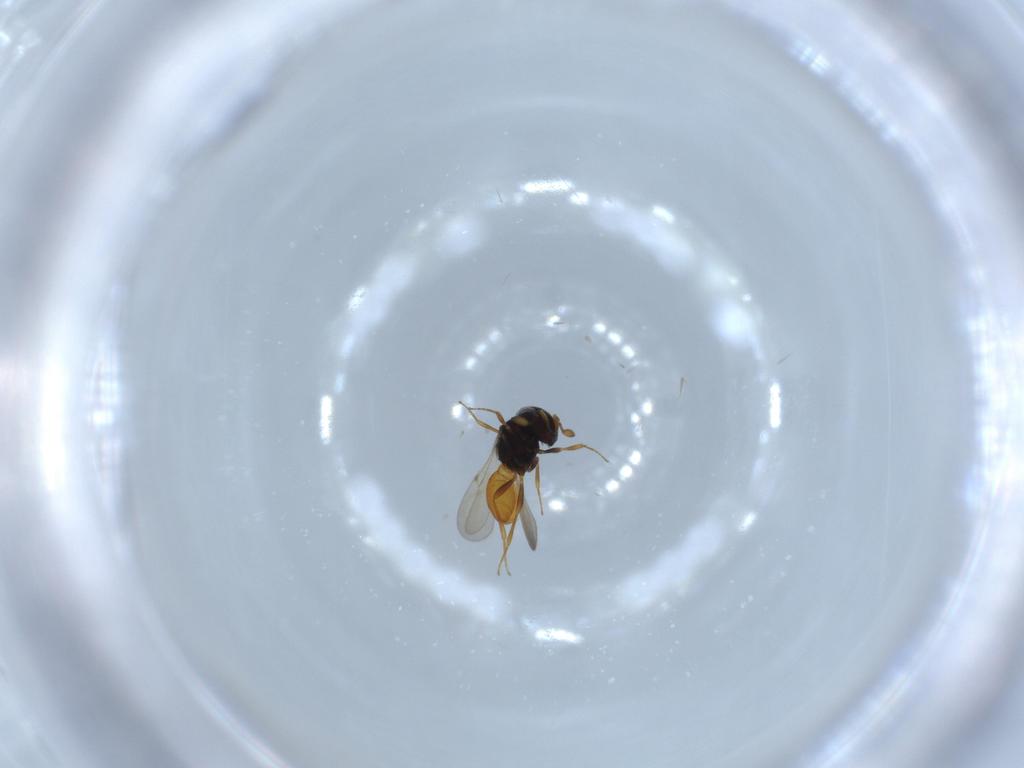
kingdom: Animalia
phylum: Arthropoda
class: Insecta
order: Hymenoptera
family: Scelionidae
